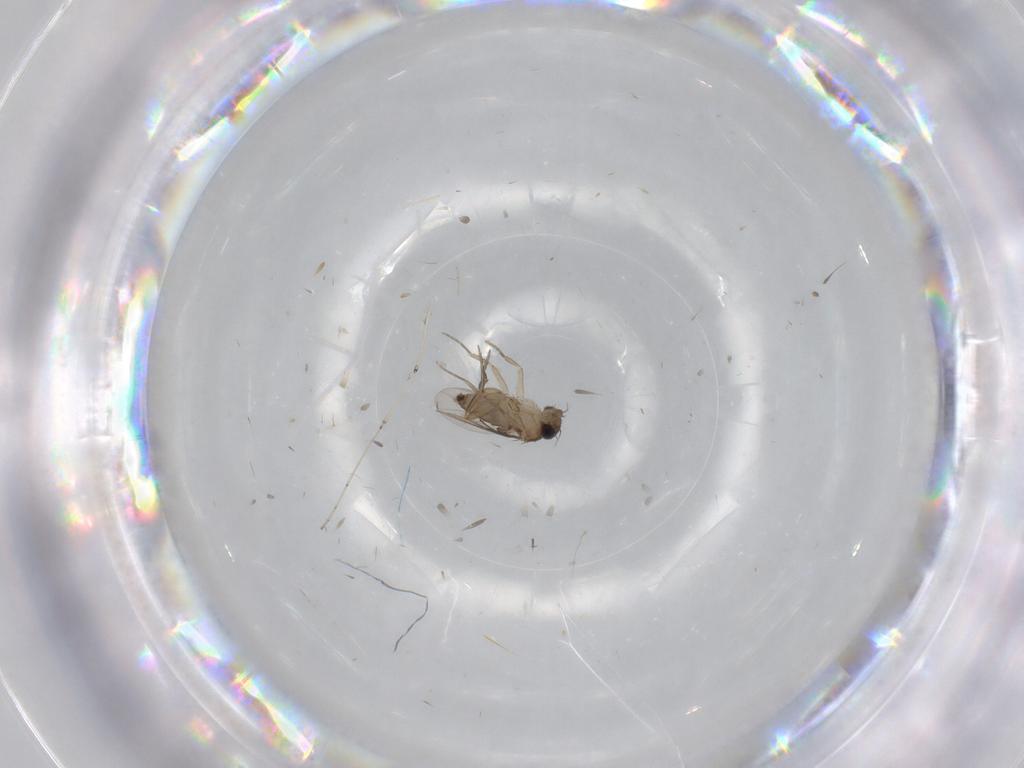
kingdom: Animalia
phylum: Arthropoda
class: Insecta
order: Diptera
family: Phoridae
